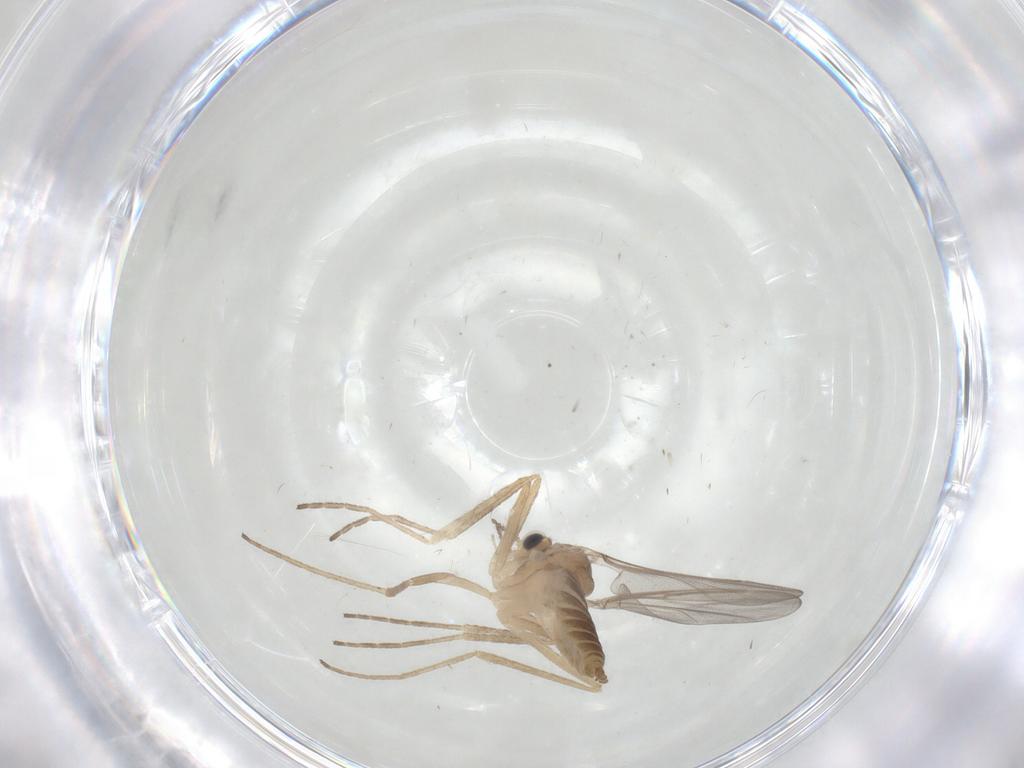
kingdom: Animalia
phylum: Arthropoda
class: Insecta
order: Diptera
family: Cecidomyiidae
